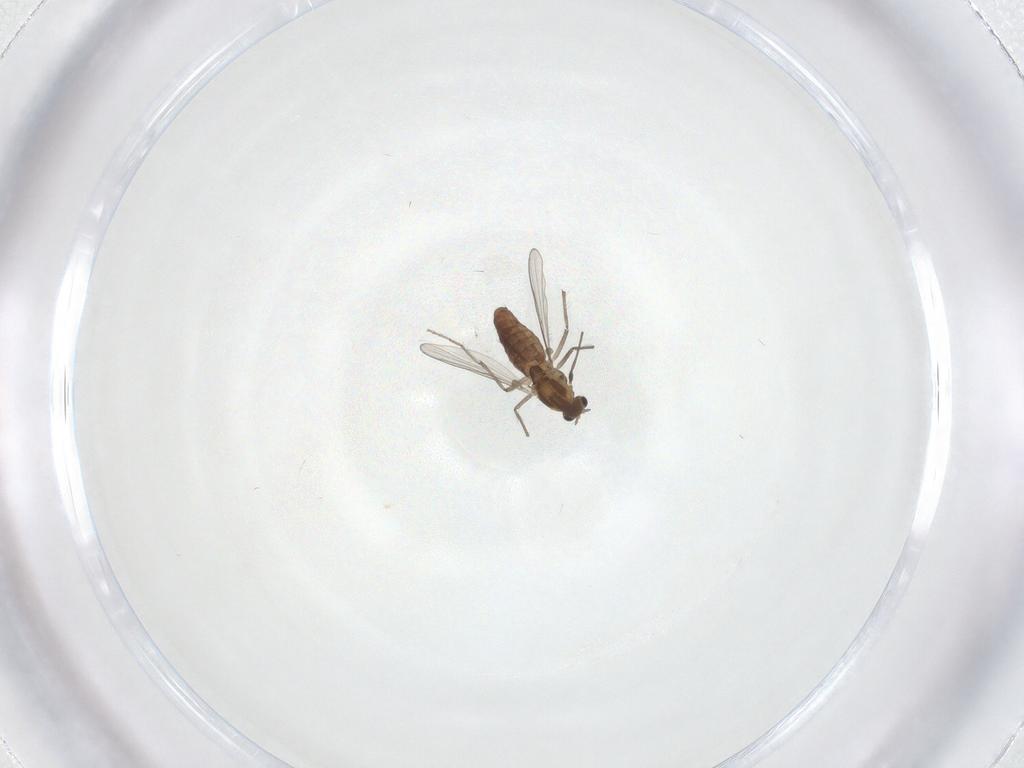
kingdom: Animalia
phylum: Arthropoda
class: Insecta
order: Diptera
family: Chironomidae
